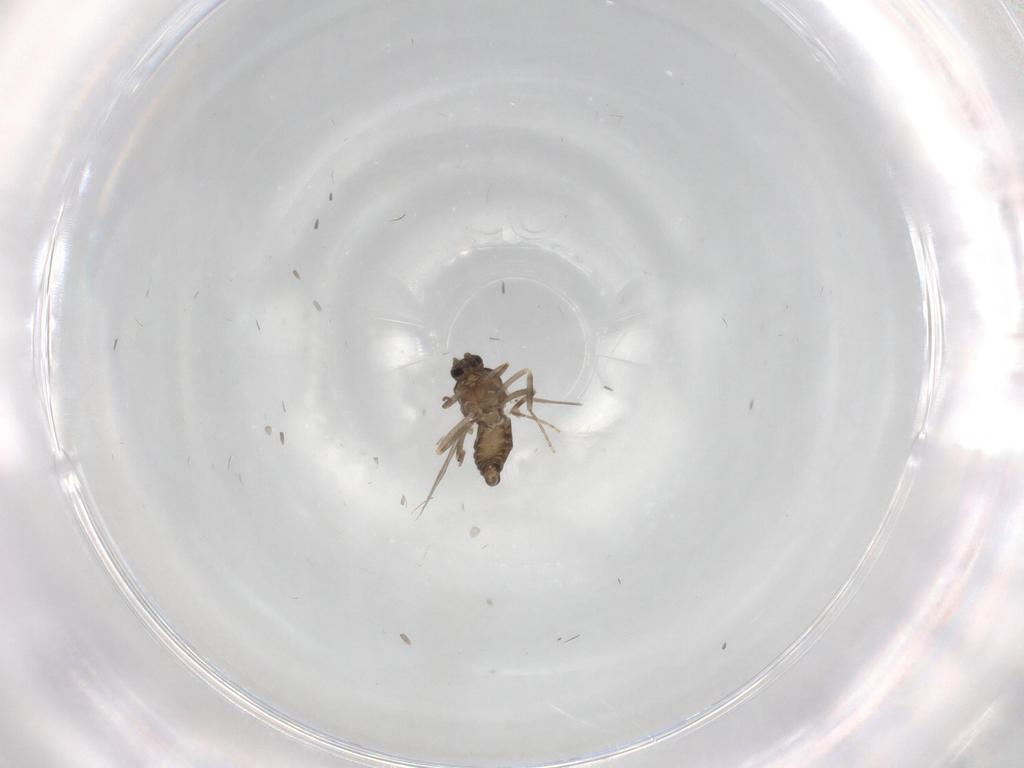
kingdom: Animalia
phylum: Arthropoda
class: Insecta
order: Diptera
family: Ceratopogonidae
